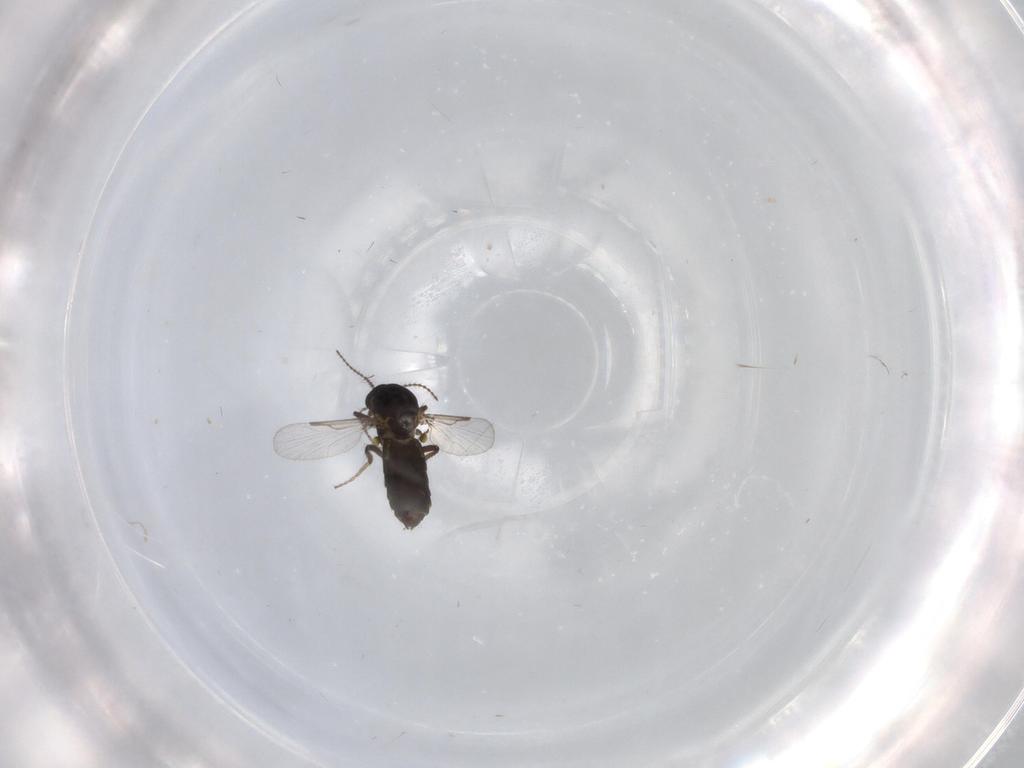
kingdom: Animalia
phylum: Arthropoda
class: Insecta
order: Diptera
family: Ceratopogonidae
